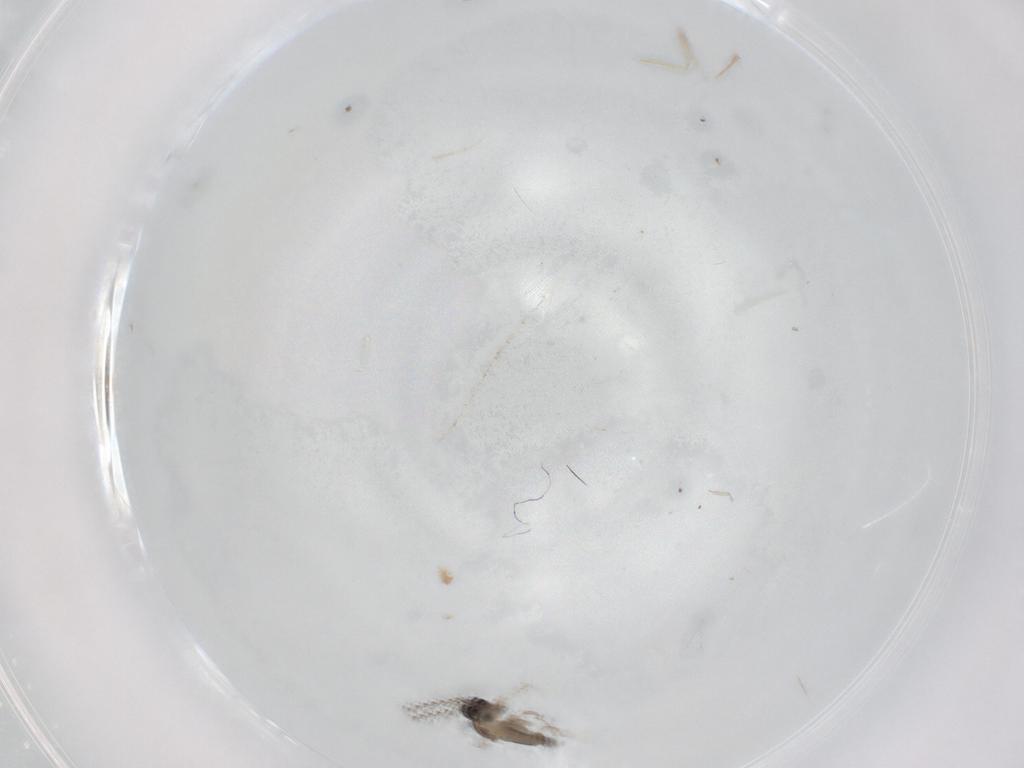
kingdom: Animalia
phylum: Arthropoda
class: Insecta
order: Diptera
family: Cecidomyiidae
